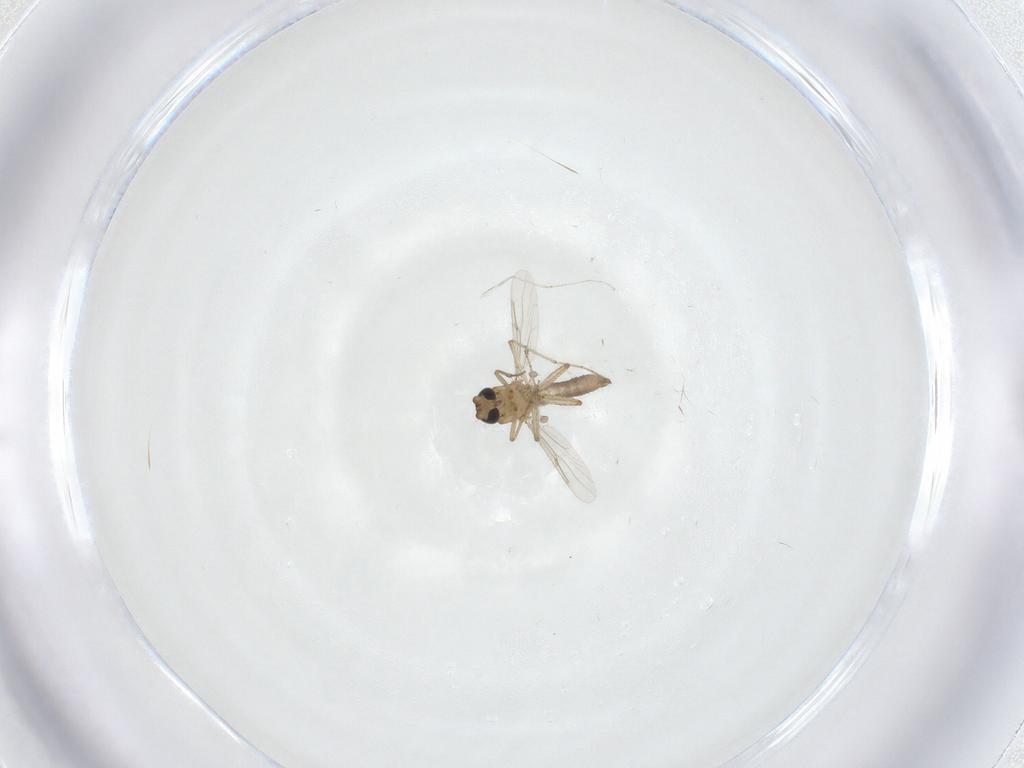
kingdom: Animalia
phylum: Arthropoda
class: Insecta
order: Diptera
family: Cecidomyiidae
